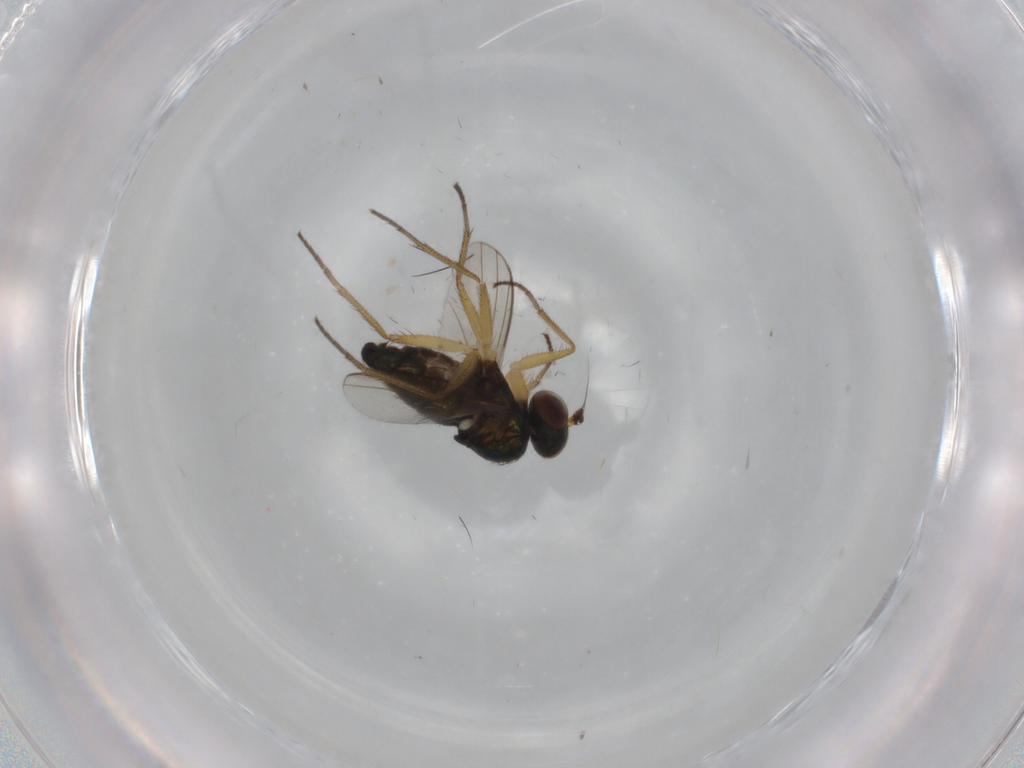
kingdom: Animalia
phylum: Arthropoda
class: Insecta
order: Diptera
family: Dolichopodidae
